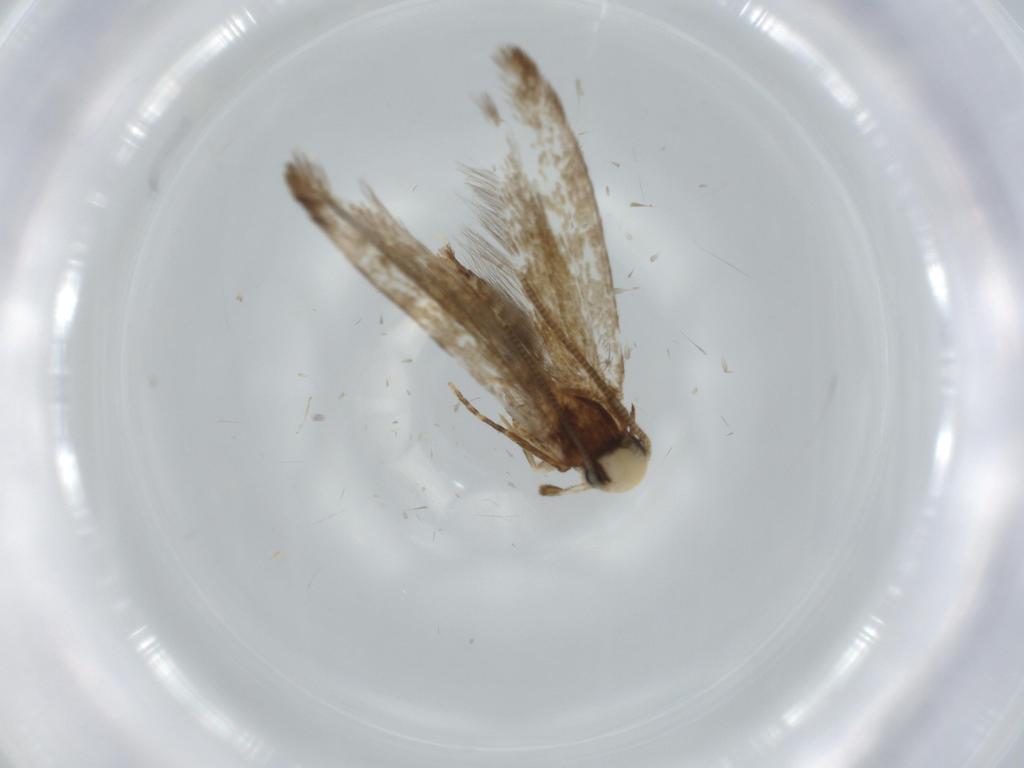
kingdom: Animalia
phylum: Arthropoda
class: Insecta
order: Lepidoptera
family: Tineidae
